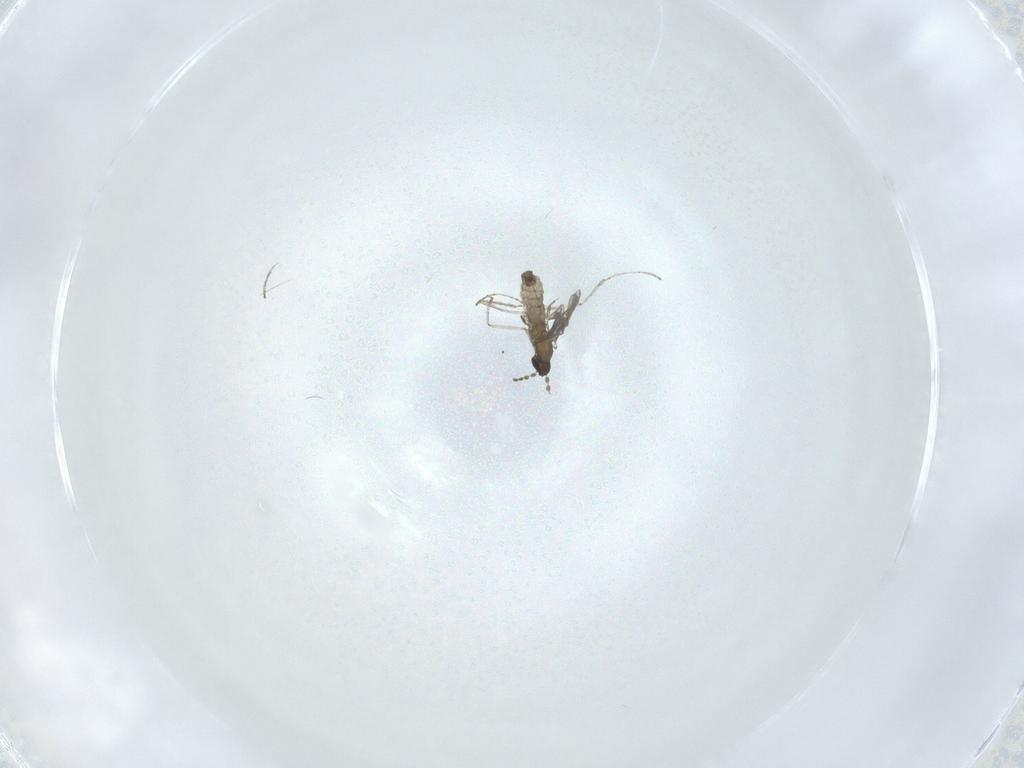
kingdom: Animalia
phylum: Arthropoda
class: Insecta
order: Diptera
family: Cecidomyiidae
